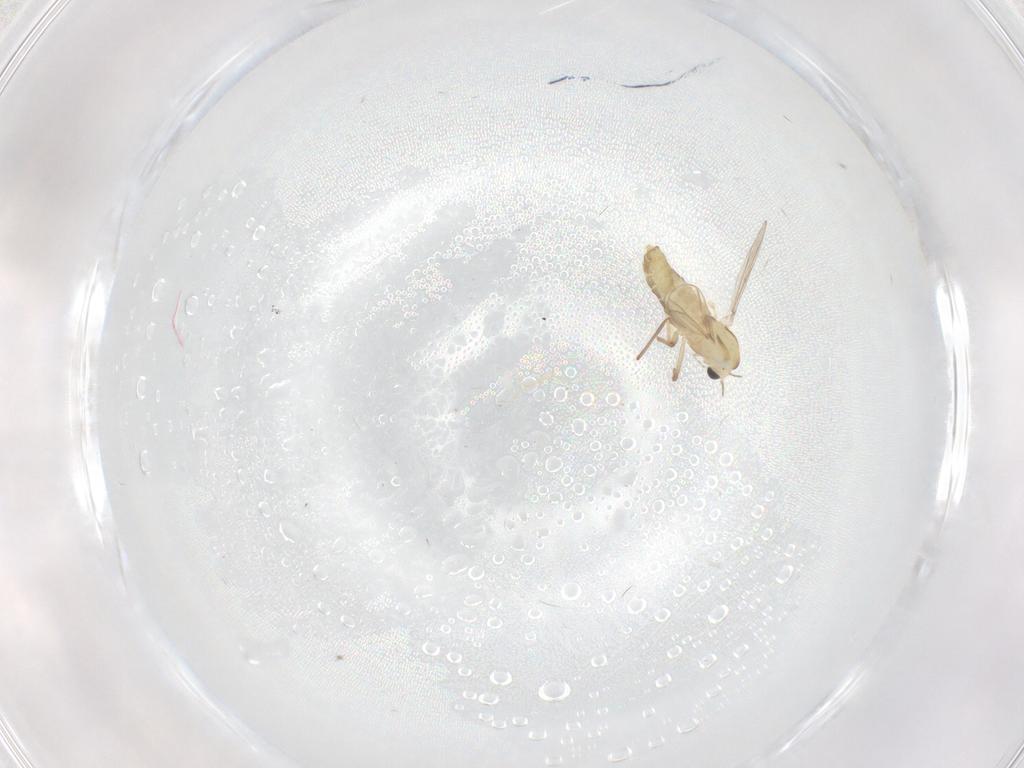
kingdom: Animalia
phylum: Arthropoda
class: Insecta
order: Diptera
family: Chironomidae
